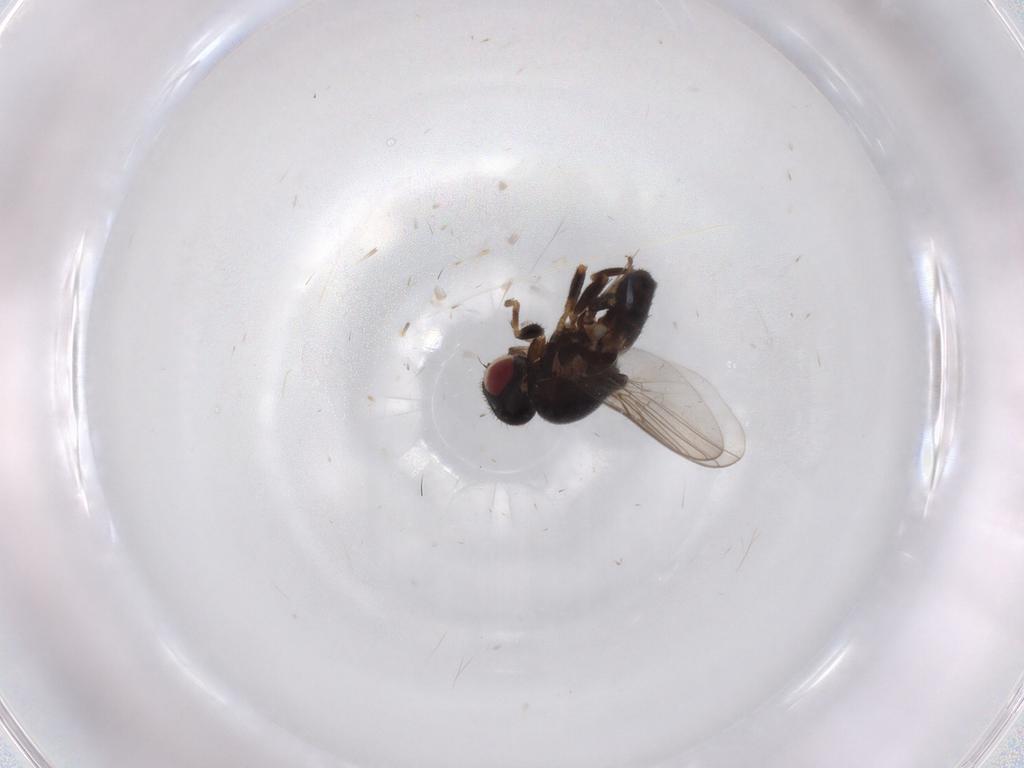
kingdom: Animalia
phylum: Arthropoda
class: Insecta
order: Diptera
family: Chloropidae
